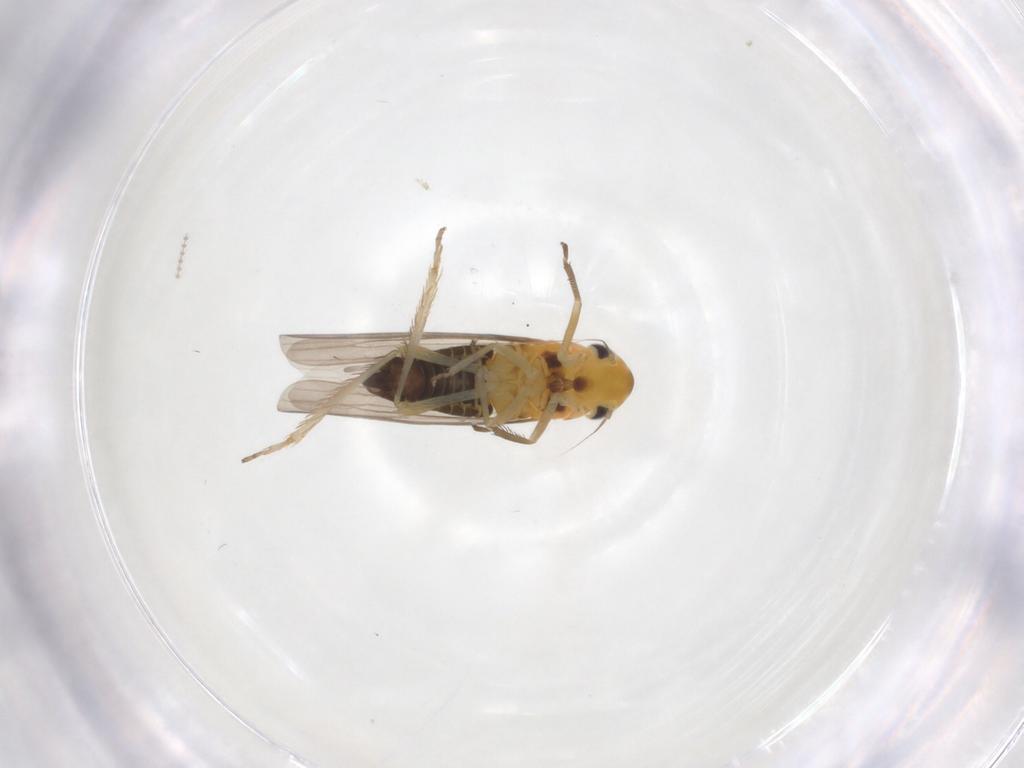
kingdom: Animalia
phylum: Arthropoda
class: Insecta
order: Hemiptera
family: Cicadellidae
